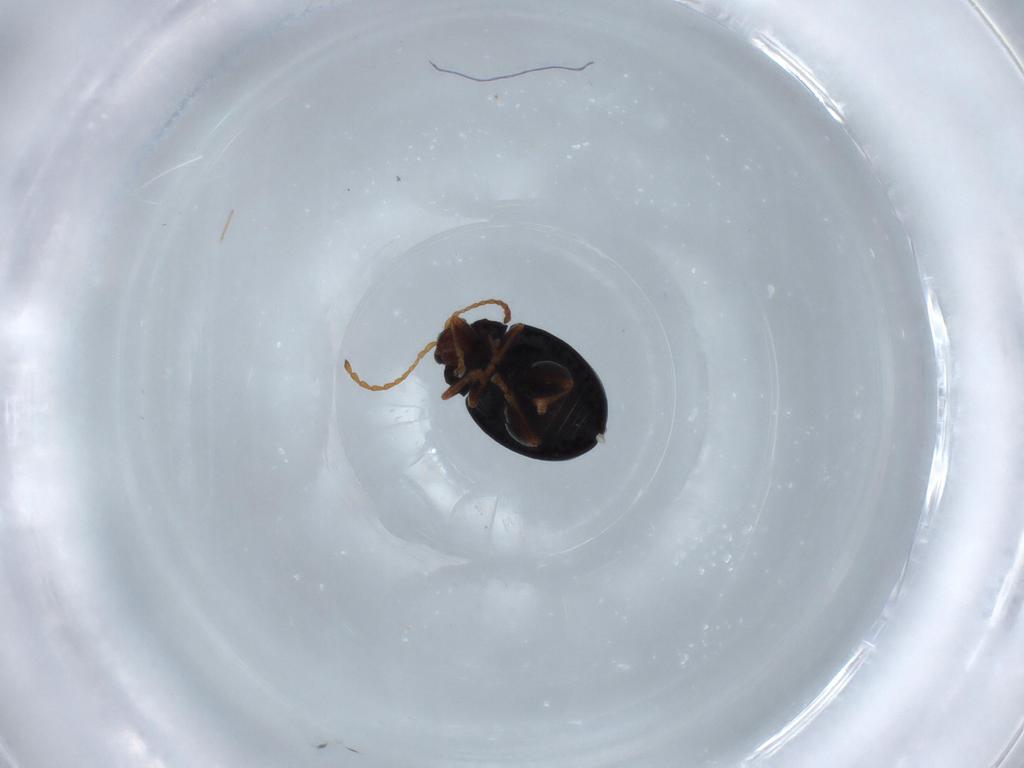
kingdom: Animalia
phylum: Arthropoda
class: Insecta
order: Coleoptera
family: Chrysomelidae
